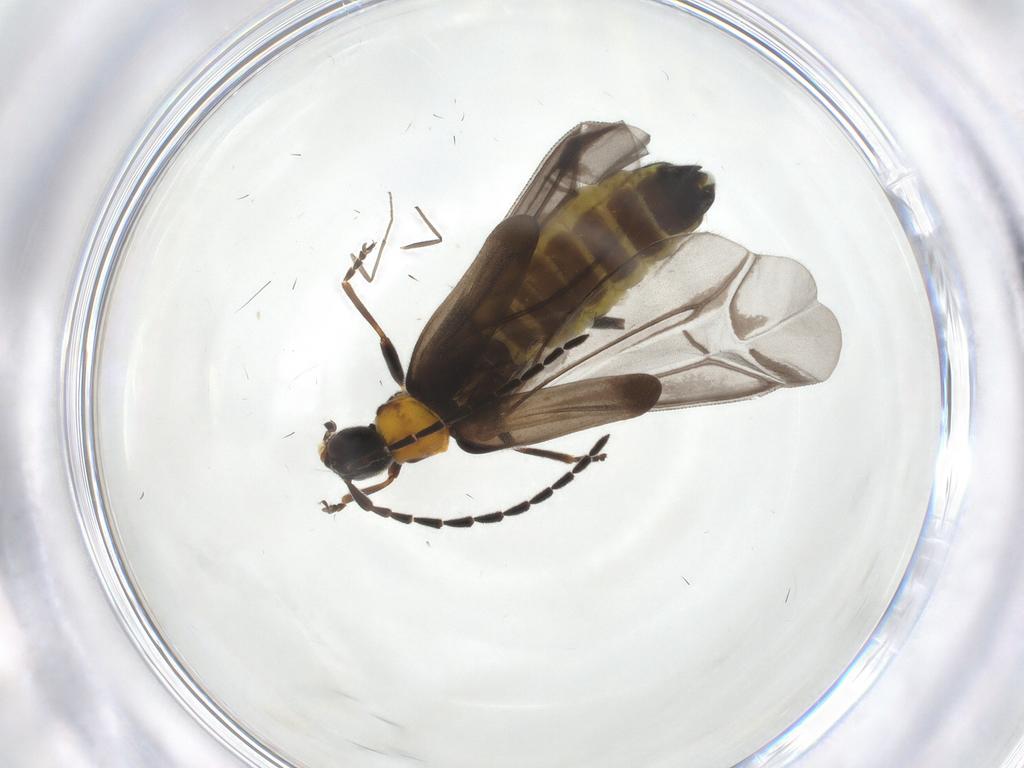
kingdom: Animalia
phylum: Arthropoda
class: Insecta
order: Coleoptera
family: Cantharidae
